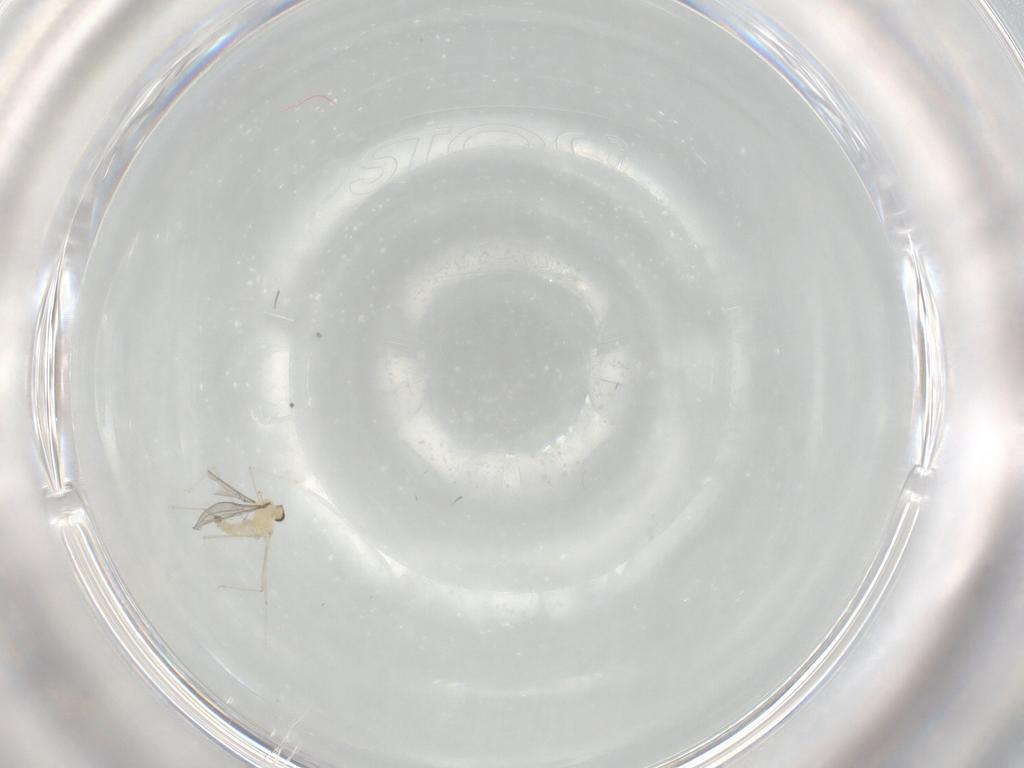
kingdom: Animalia
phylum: Arthropoda
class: Insecta
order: Diptera
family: Cecidomyiidae
